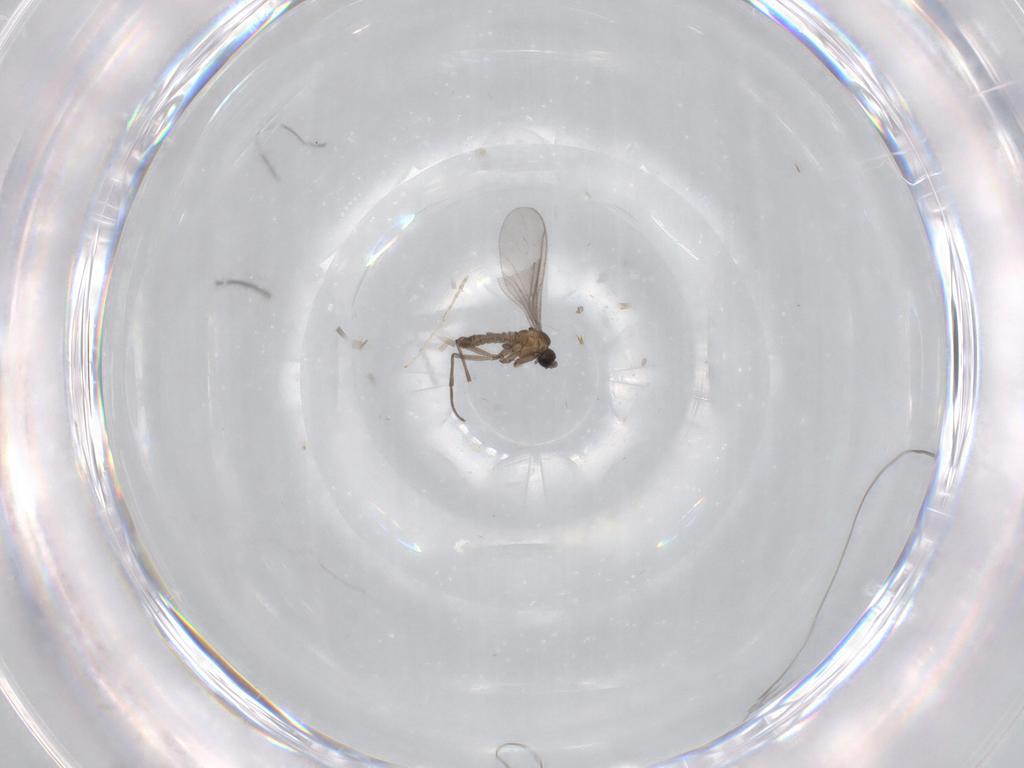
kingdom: Animalia
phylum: Arthropoda
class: Insecta
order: Diptera
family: Sciaridae
